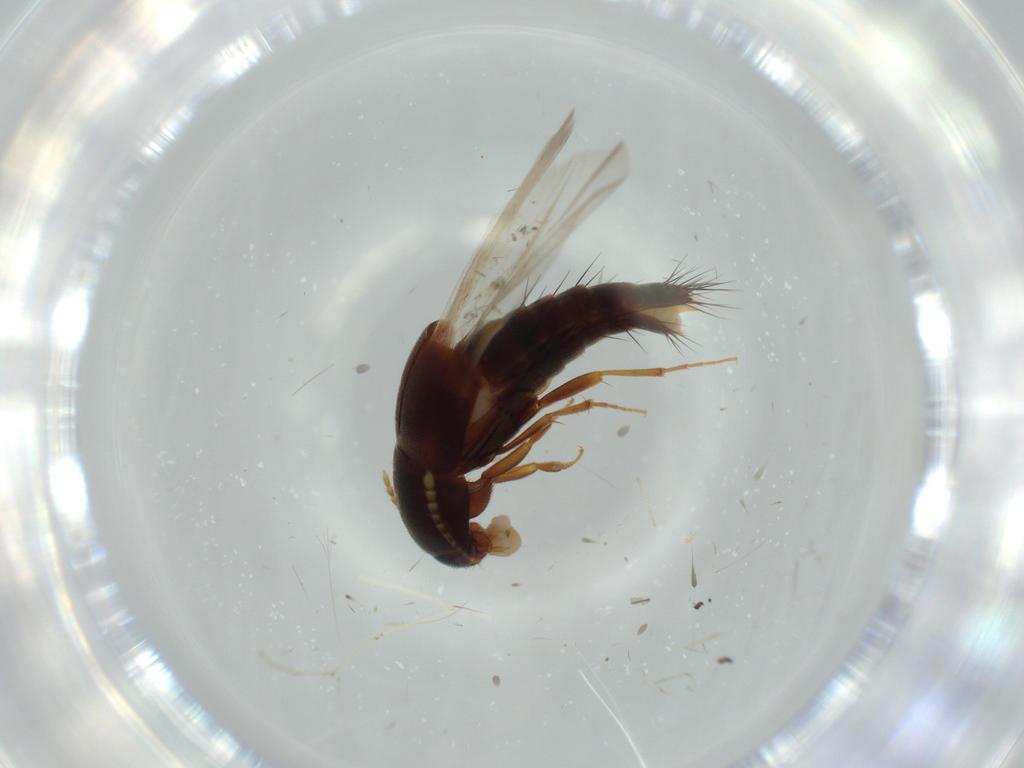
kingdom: Animalia
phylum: Arthropoda
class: Insecta
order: Coleoptera
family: Staphylinidae
